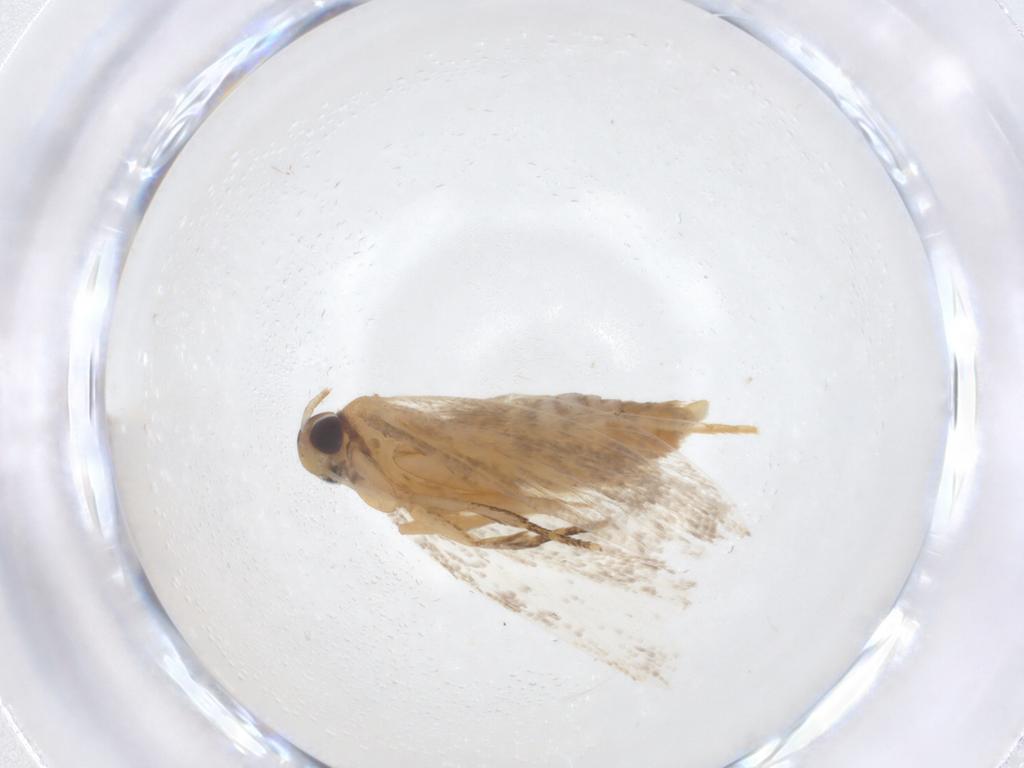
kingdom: Animalia
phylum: Arthropoda
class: Insecta
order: Lepidoptera
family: Oecophoridae
